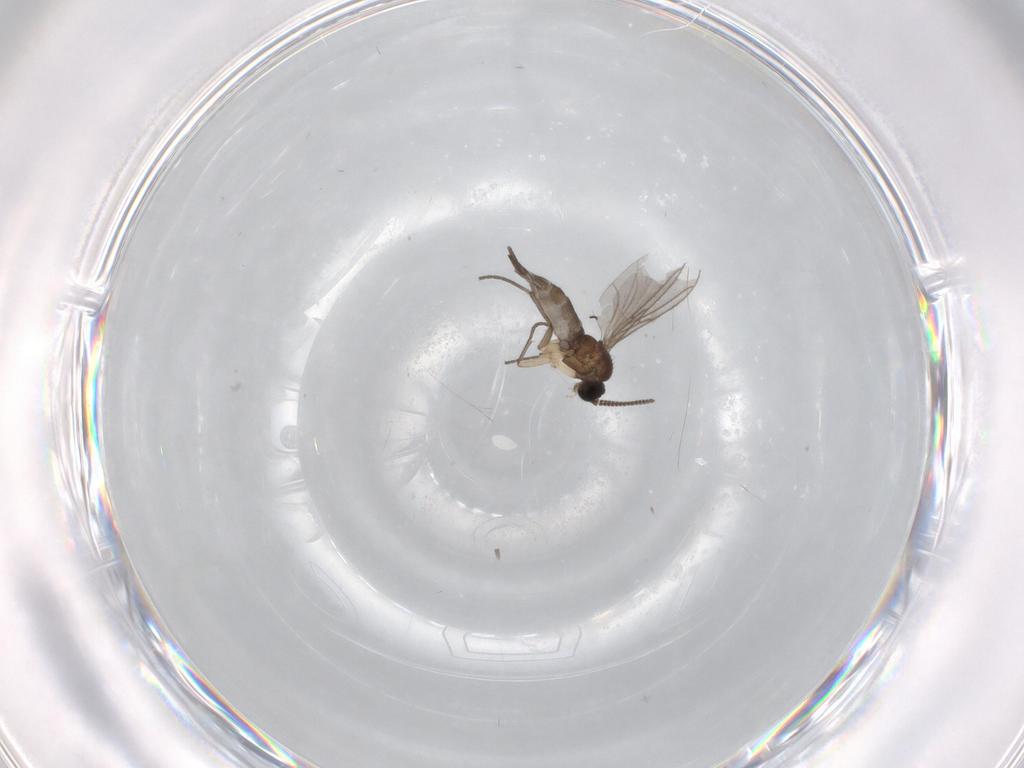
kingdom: Animalia
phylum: Arthropoda
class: Insecta
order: Diptera
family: Sciaridae
